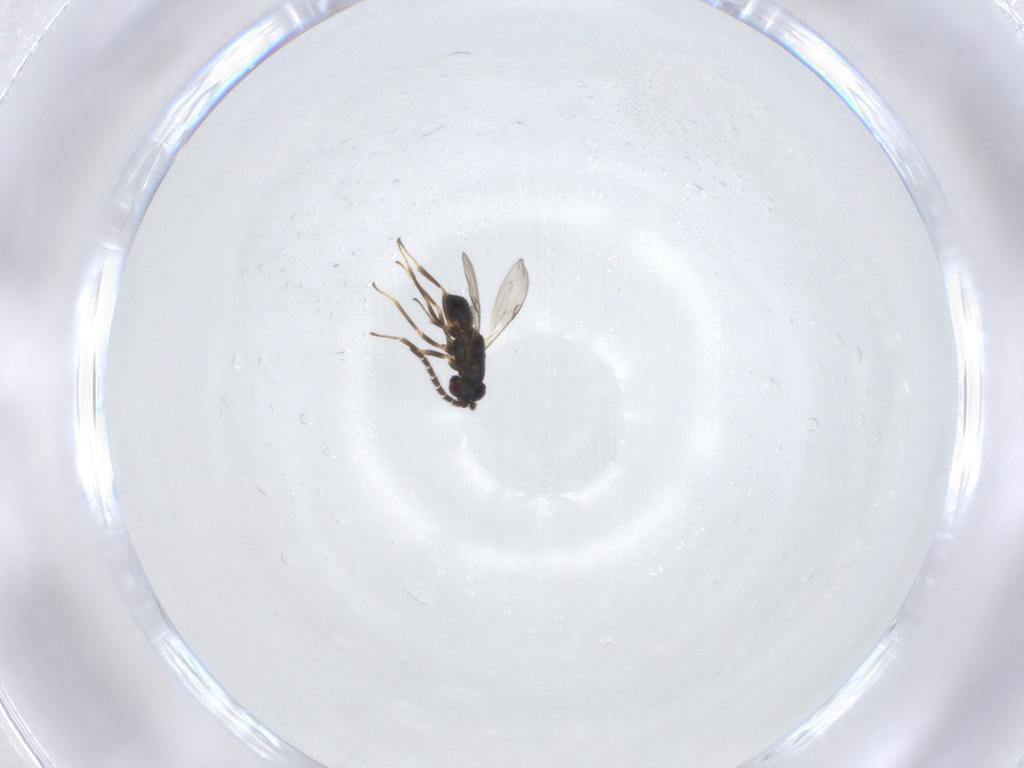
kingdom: Animalia
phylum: Arthropoda
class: Insecta
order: Hymenoptera
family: Encyrtidae
